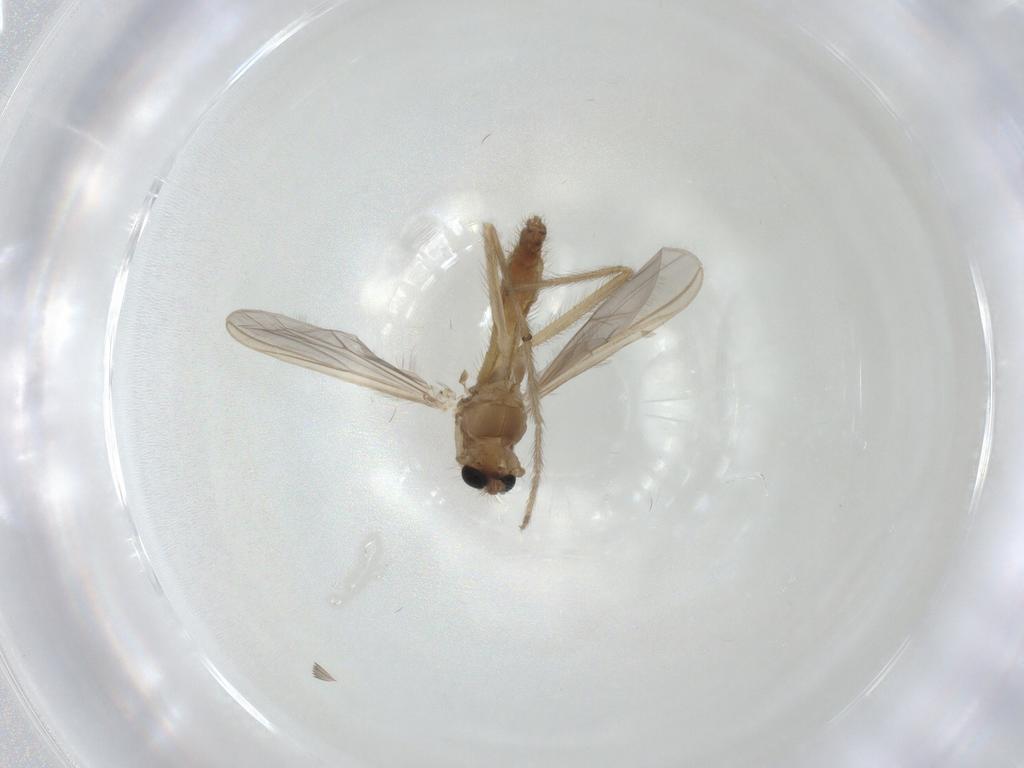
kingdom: Animalia
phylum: Arthropoda
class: Insecta
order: Diptera
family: Chironomidae
